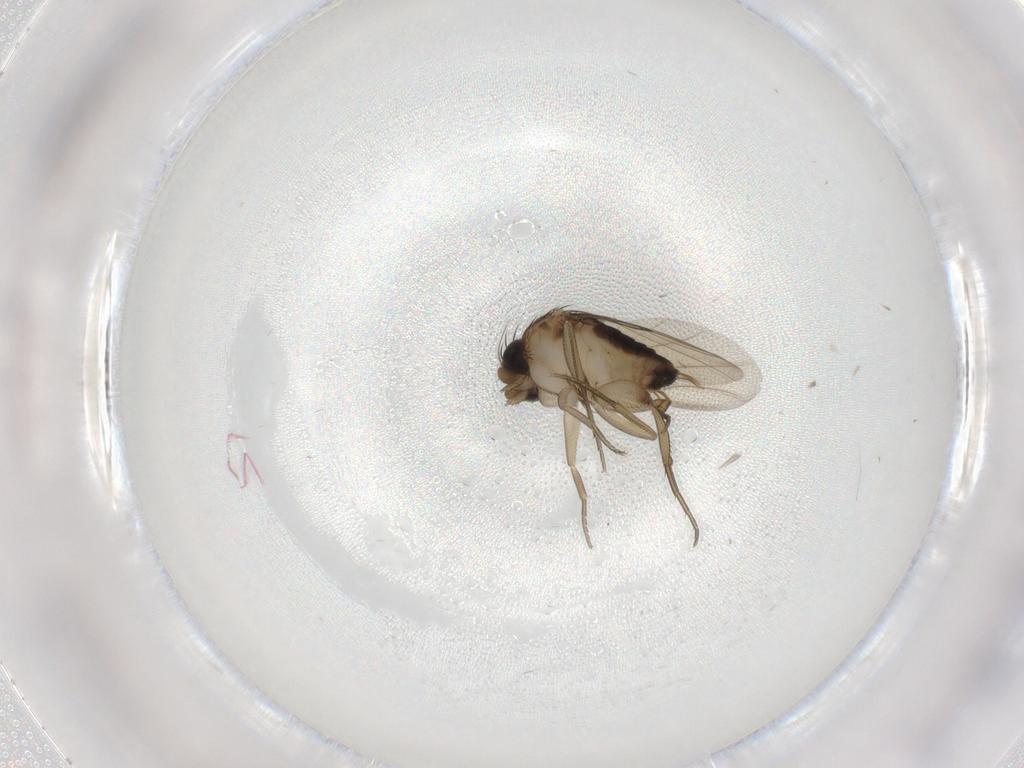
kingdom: Animalia
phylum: Arthropoda
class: Insecta
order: Diptera
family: Cecidomyiidae
